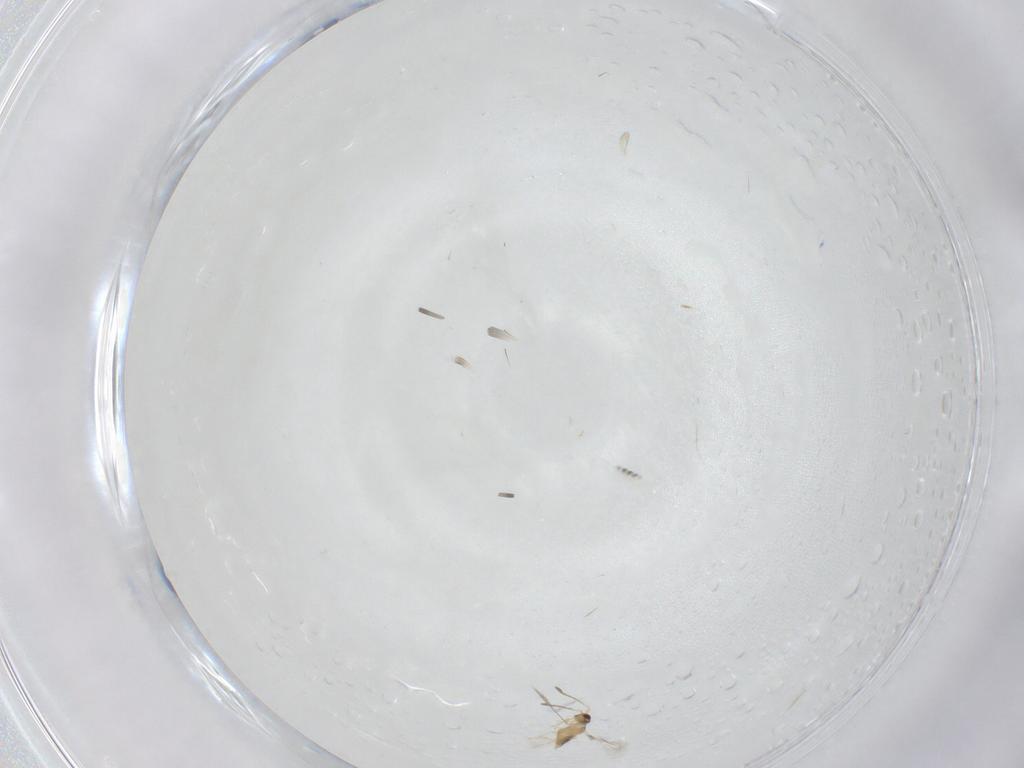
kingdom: Animalia
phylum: Arthropoda
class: Insecta
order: Hymenoptera
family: Mymaridae
